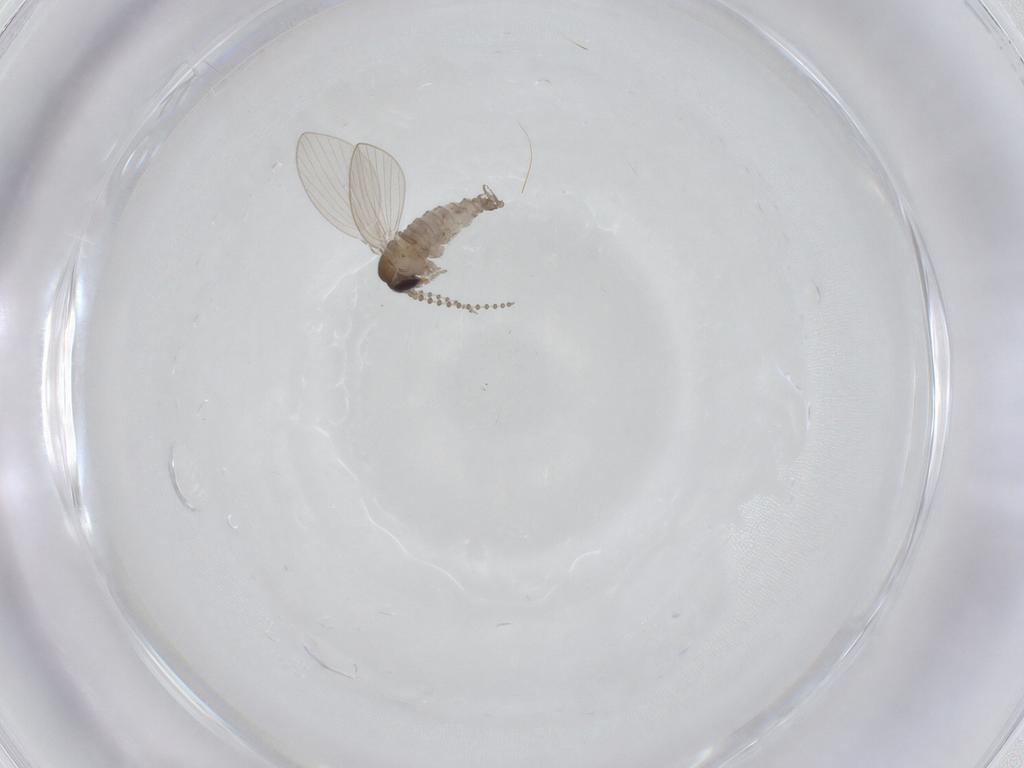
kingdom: Animalia
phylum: Arthropoda
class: Insecta
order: Diptera
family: Psychodidae
